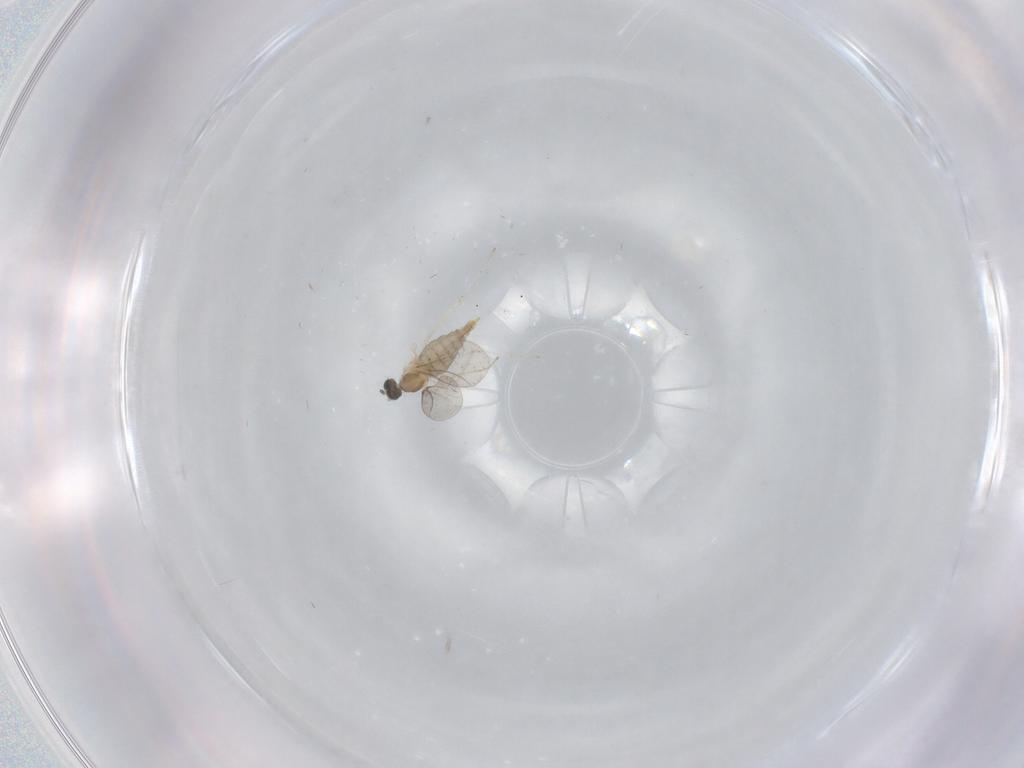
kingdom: Animalia
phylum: Arthropoda
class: Insecta
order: Diptera
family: Cecidomyiidae
